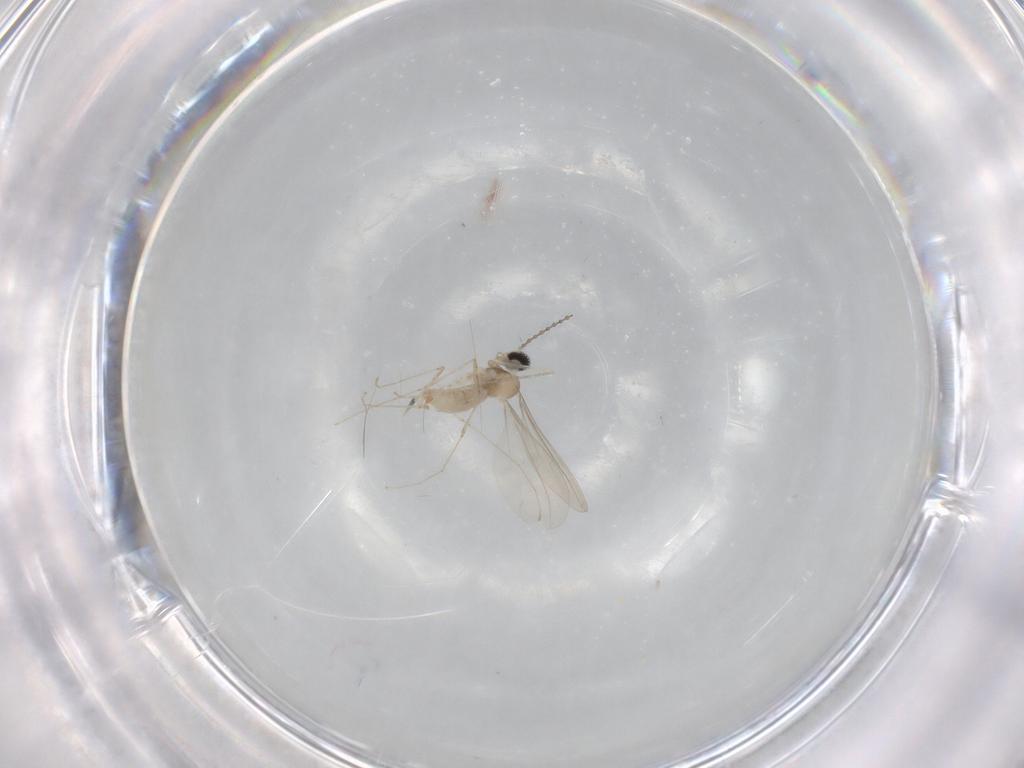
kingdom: Animalia
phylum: Arthropoda
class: Insecta
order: Diptera
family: Cecidomyiidae
